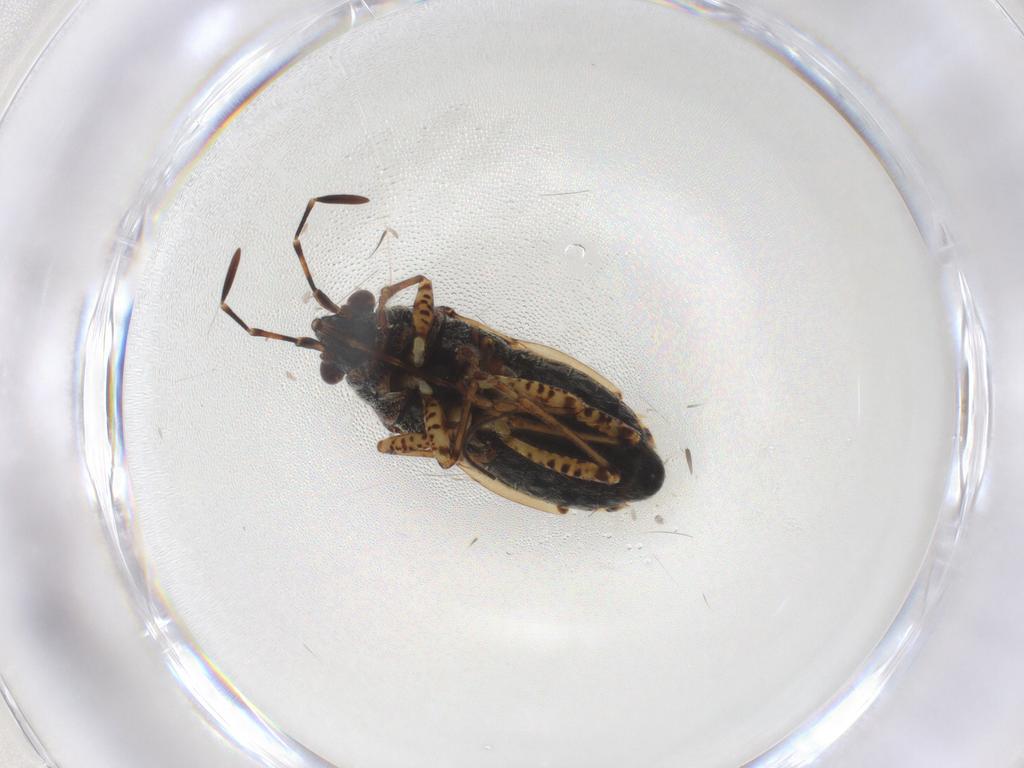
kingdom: Animalia
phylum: Arthropoda
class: Insecta
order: Hemiptera
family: Lygaeidae
